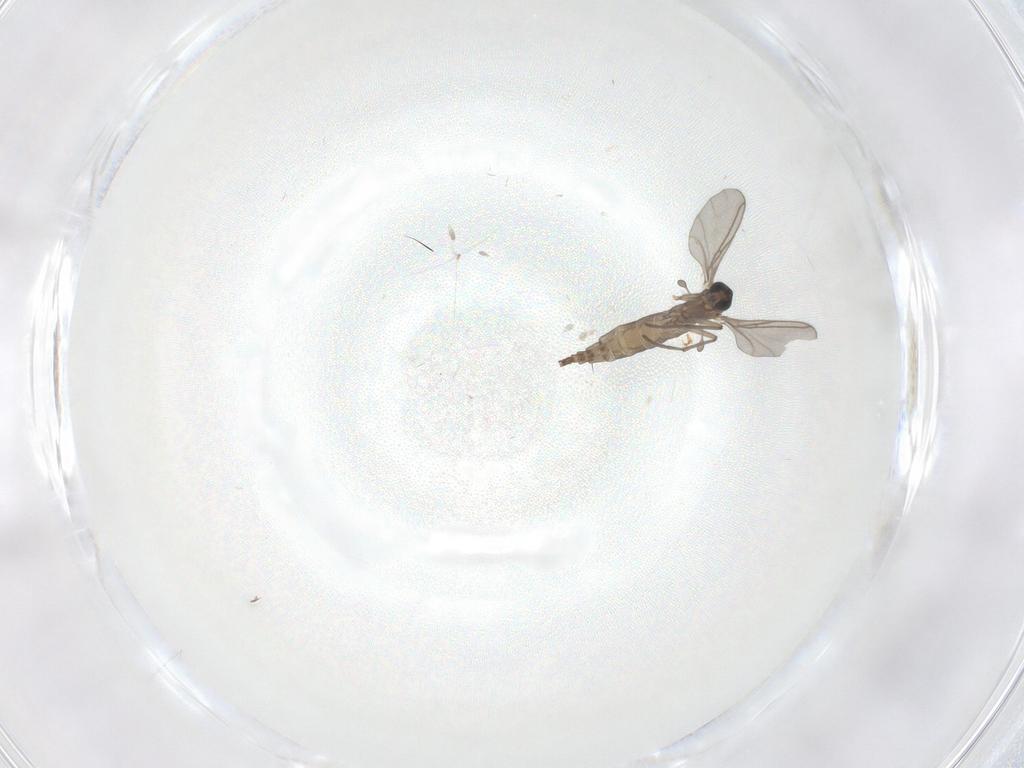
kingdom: Animalia
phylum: Arthropoda
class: Insecta
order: Diptera
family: Sciaridae
